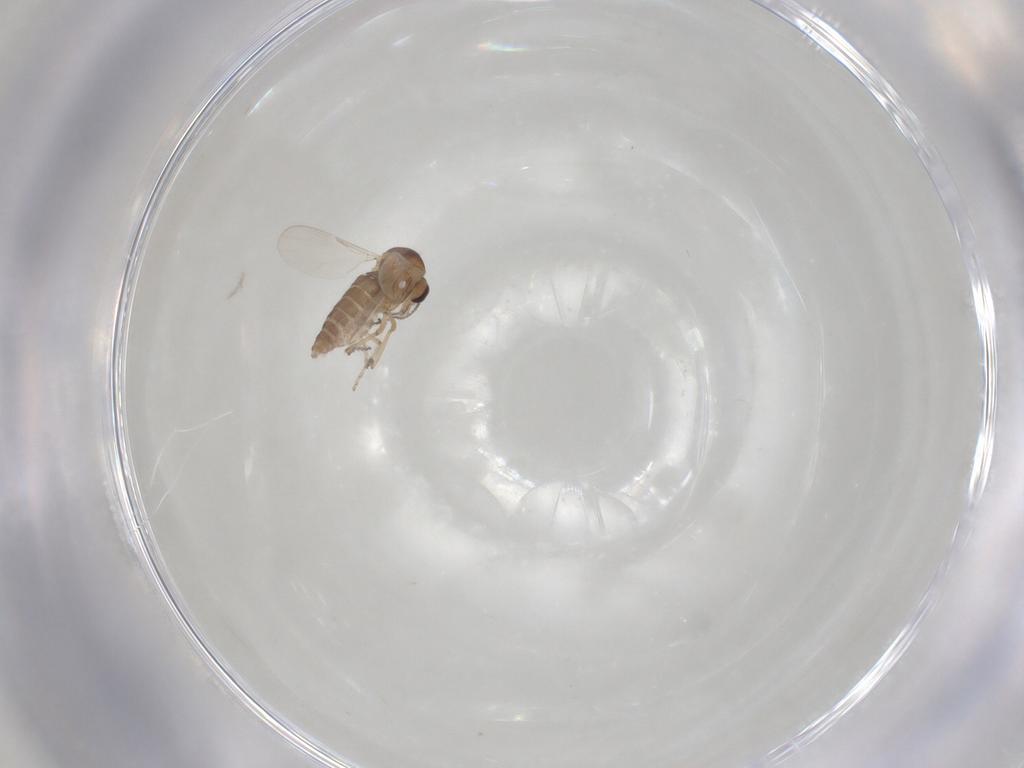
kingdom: Animalia
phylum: Arthropoda
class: Insecta
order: Diptera
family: Ceratopogonidae
